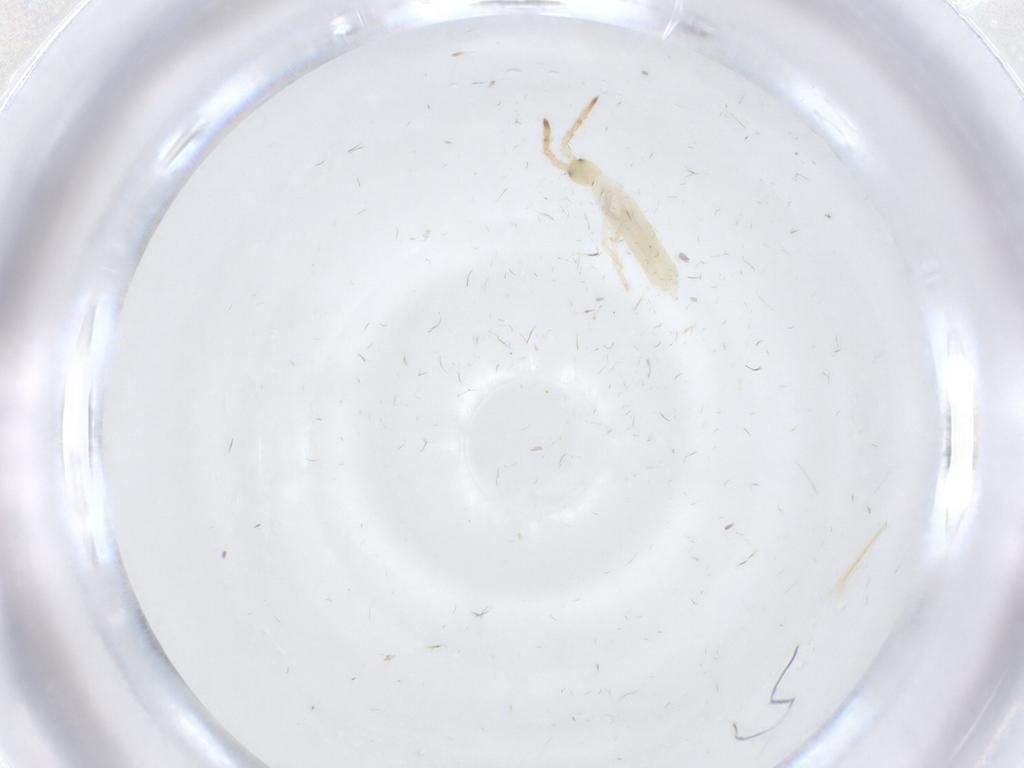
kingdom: Animalia
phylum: Arthropoda
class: Collembola
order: Entomobryomorpha
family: Entomobryidae
